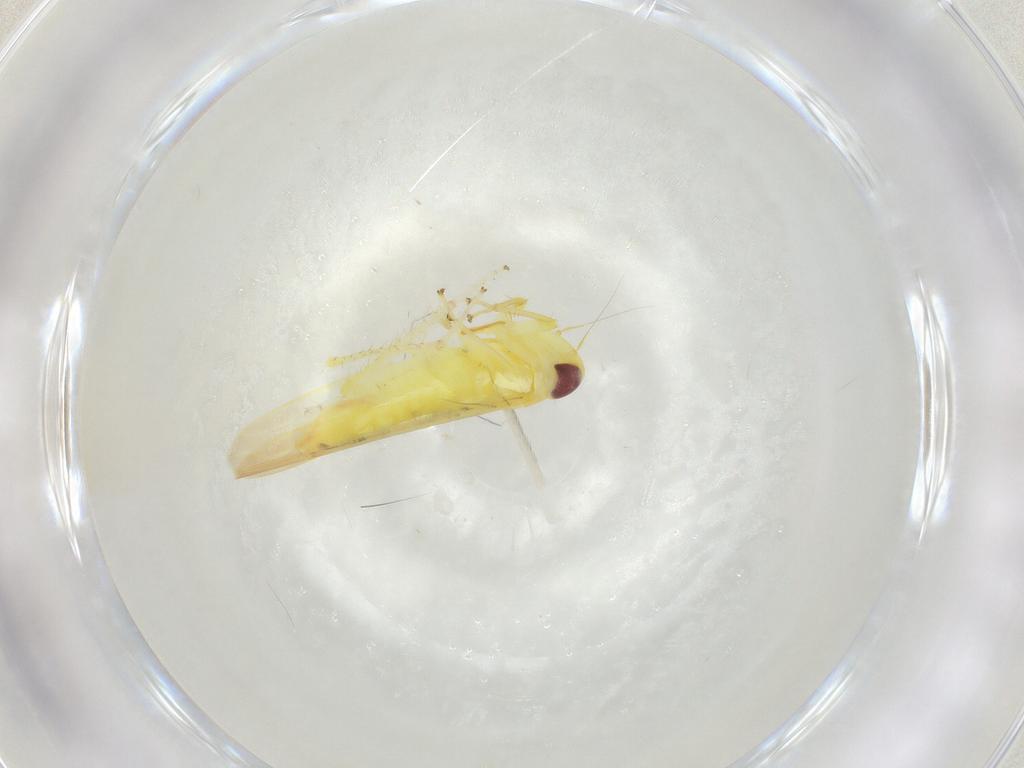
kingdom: Animalia
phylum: Arthropoda
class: Insecta
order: Hemiptera
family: Cicadellidae
